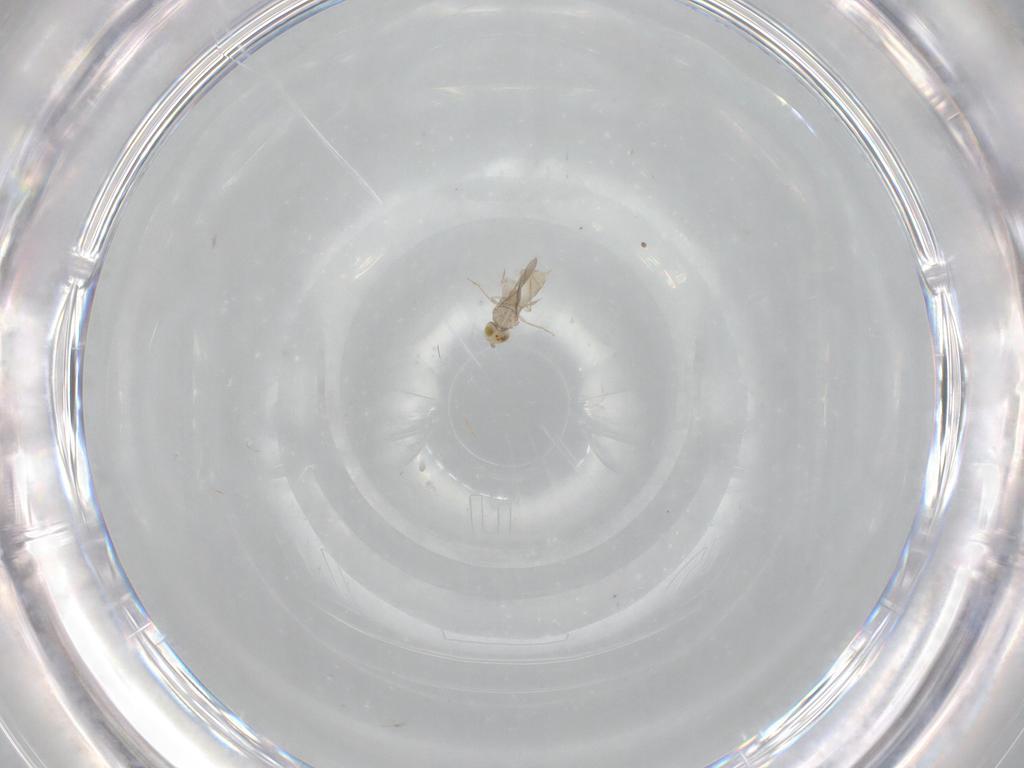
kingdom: Animalia
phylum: Arthropoda
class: Insecta
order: Hymenoptera
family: Aphelinidae
